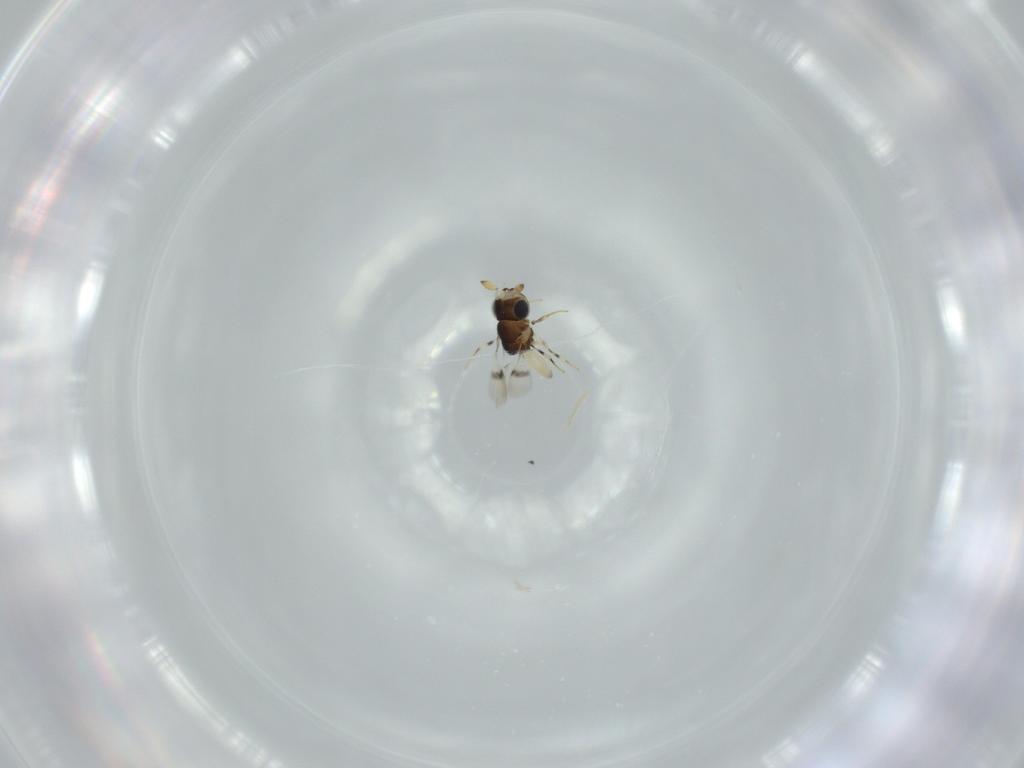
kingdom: Animalia
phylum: Arthropoda
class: Insecta
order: Hymenoptera
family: Scelionidae
